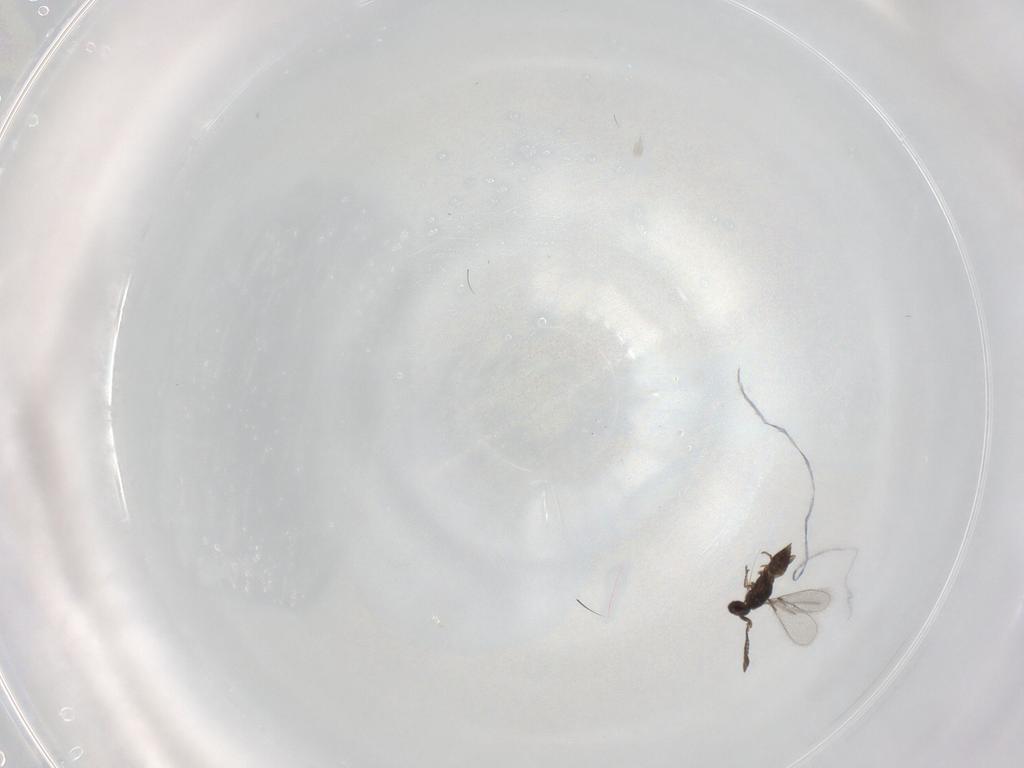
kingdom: Animalia
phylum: Arthropoda
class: Insecta
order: Hymenoptera
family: Mymaridae
